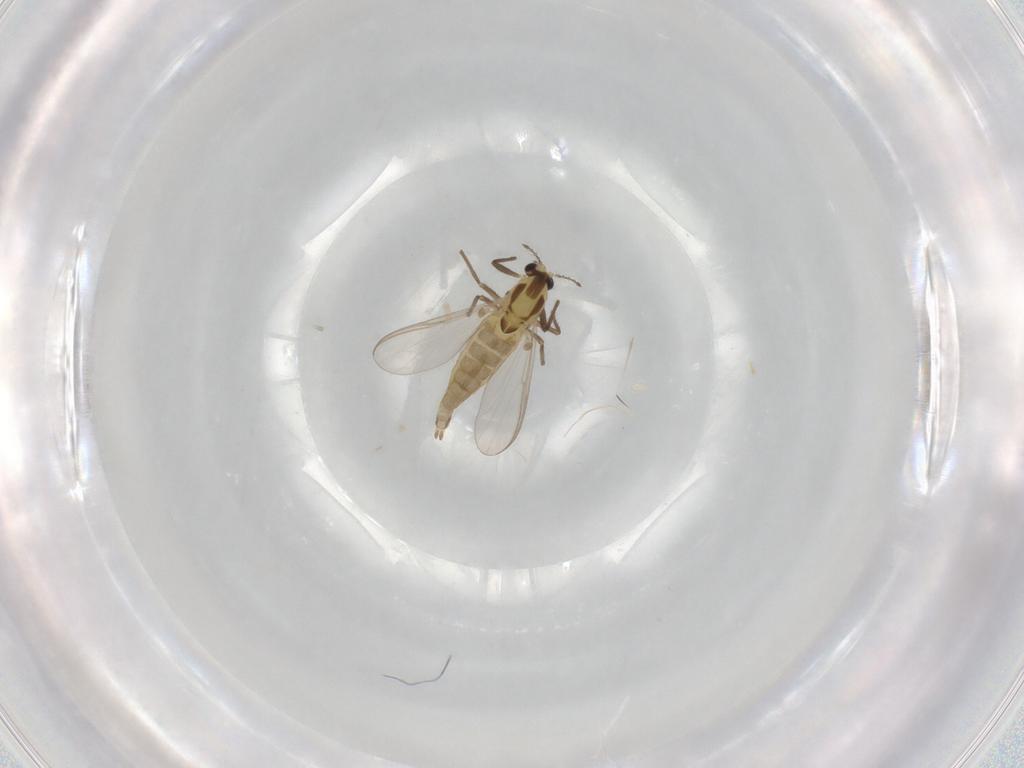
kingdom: Animalia
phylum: Arthropoda
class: Insecta
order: Diptera
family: Chironomidae
